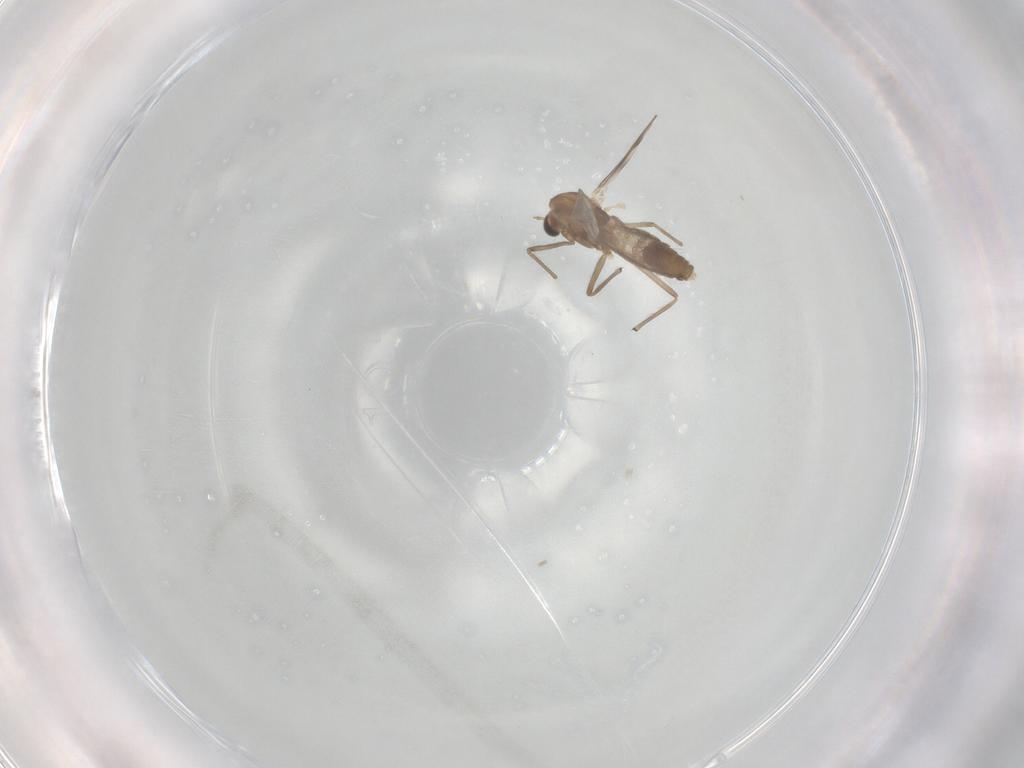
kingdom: Animalia
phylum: Arthropoda
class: Insecta
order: Diptera
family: Chironomidae
